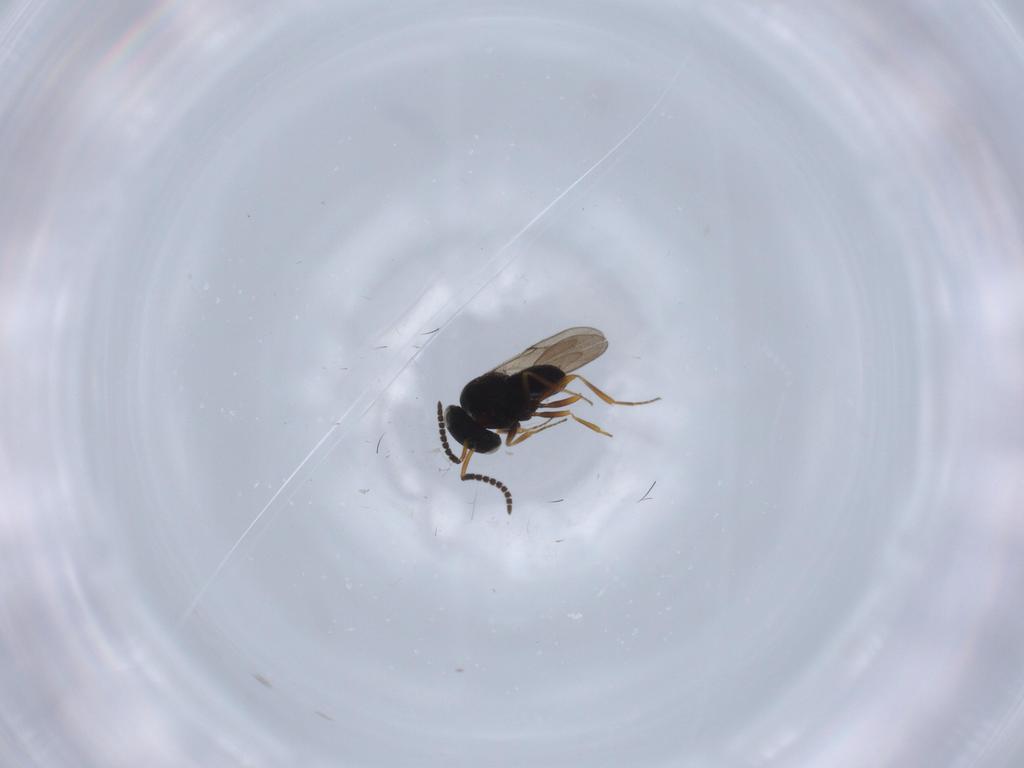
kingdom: Animalia
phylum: Arthropoda
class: Insecta
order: Hymenoptera
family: Scelionidae
